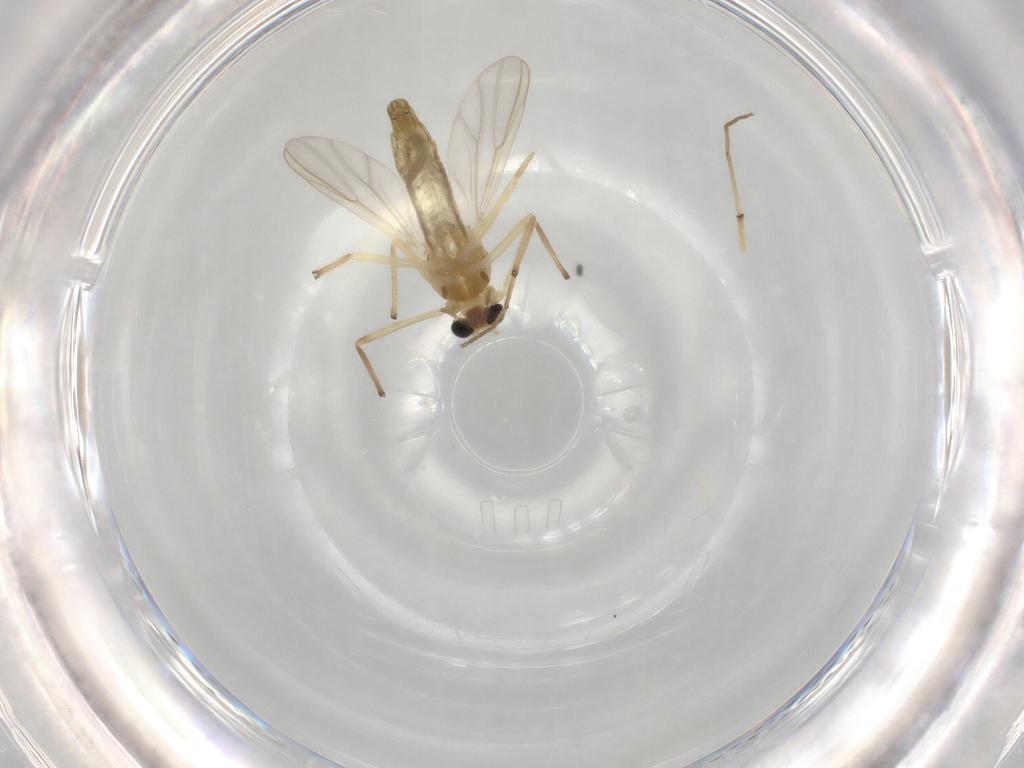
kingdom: Animalia
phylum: Arthropoda
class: Insecta
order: Diptera
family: Chironomidae
